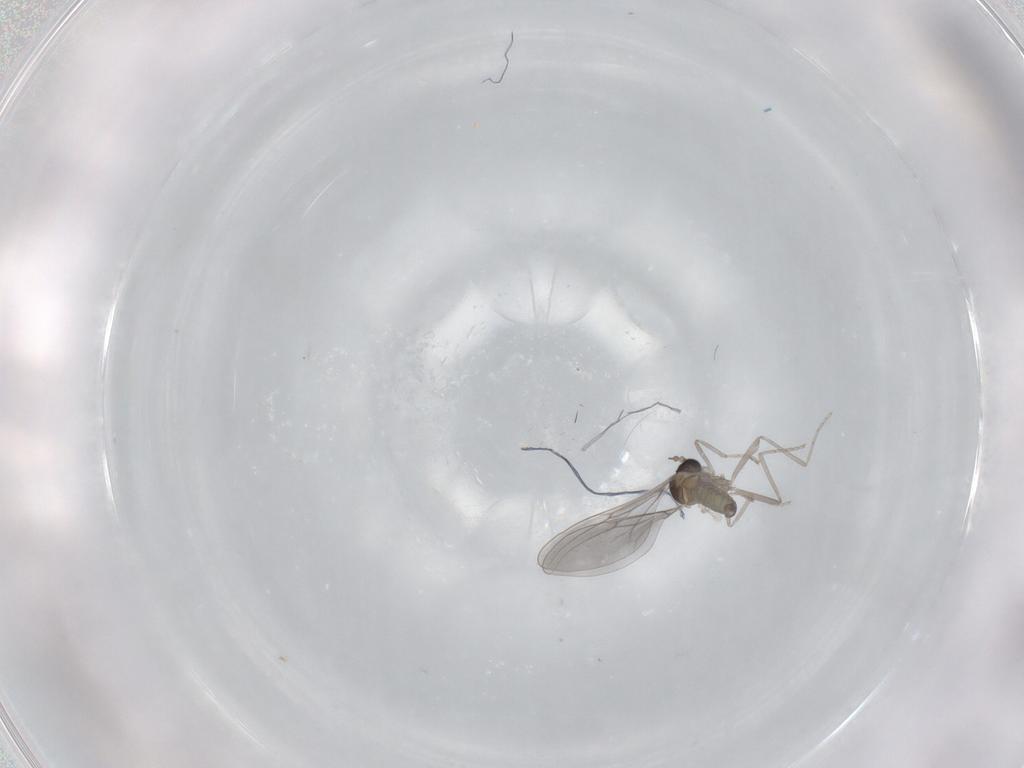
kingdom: Animalia
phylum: Arthropoda
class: Insecta
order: Diptera
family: Cecidomyiidae
